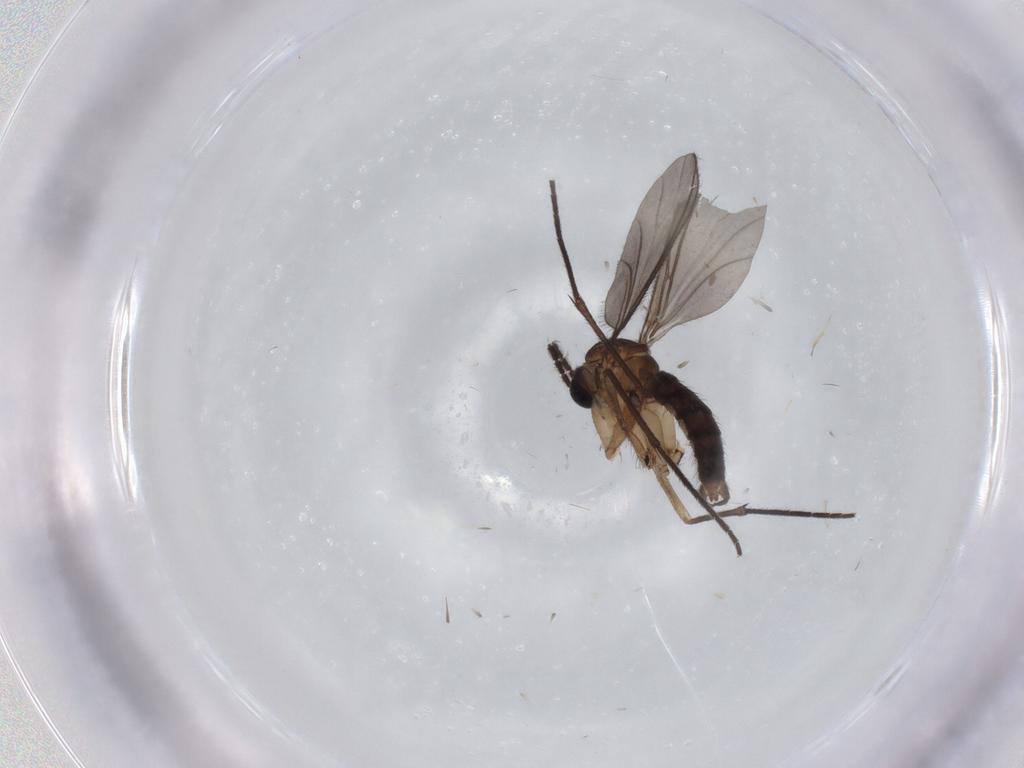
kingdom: Animalia
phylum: Arthropoda
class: Insecta
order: Diptera
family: Sciaridae
